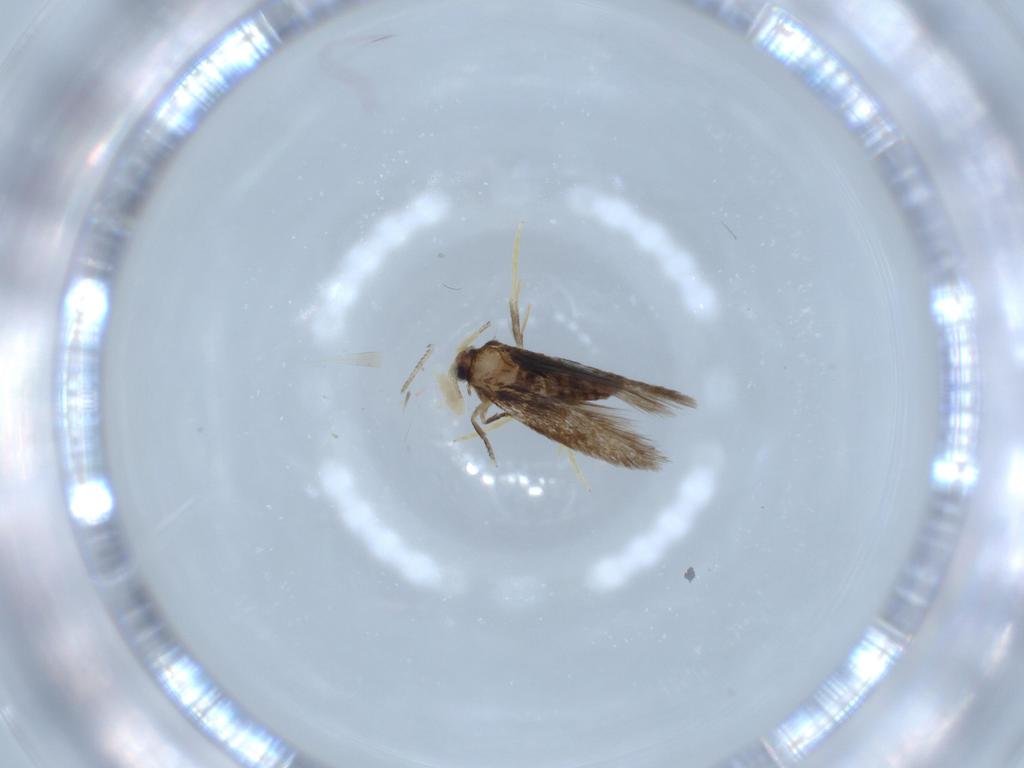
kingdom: Animalia
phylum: Arthropoda
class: Insecta
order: Lepidoptera
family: Nepticulidae
